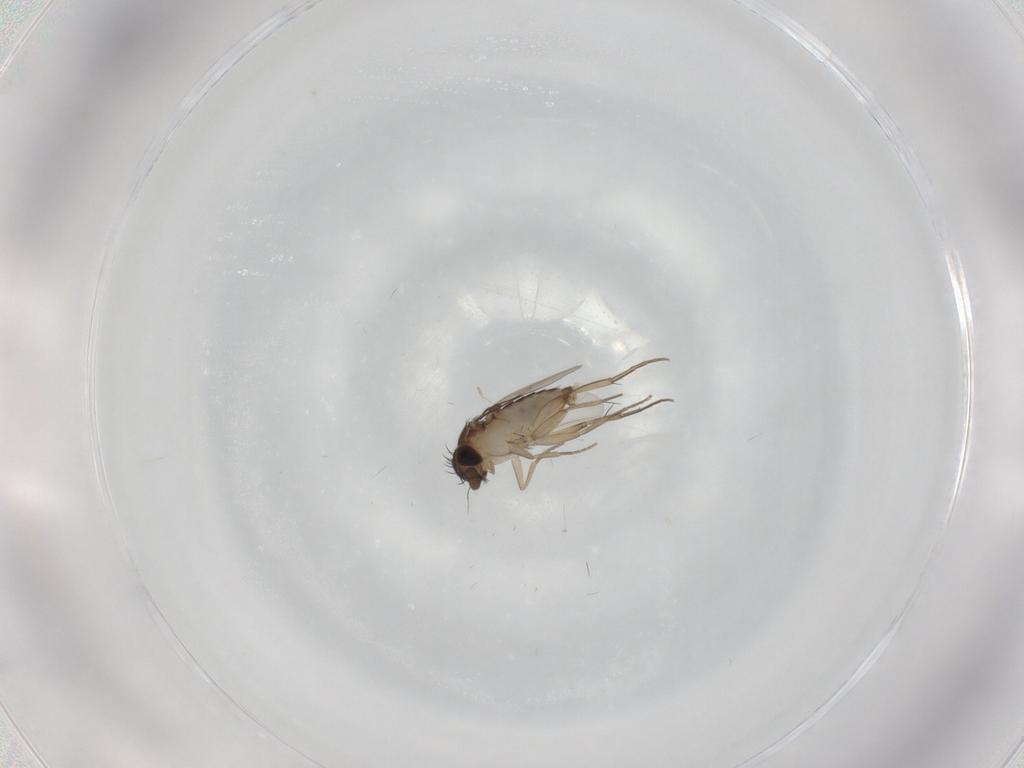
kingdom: Animalia
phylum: Arthropoda
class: Insecta
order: Diptera
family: Phoridae
